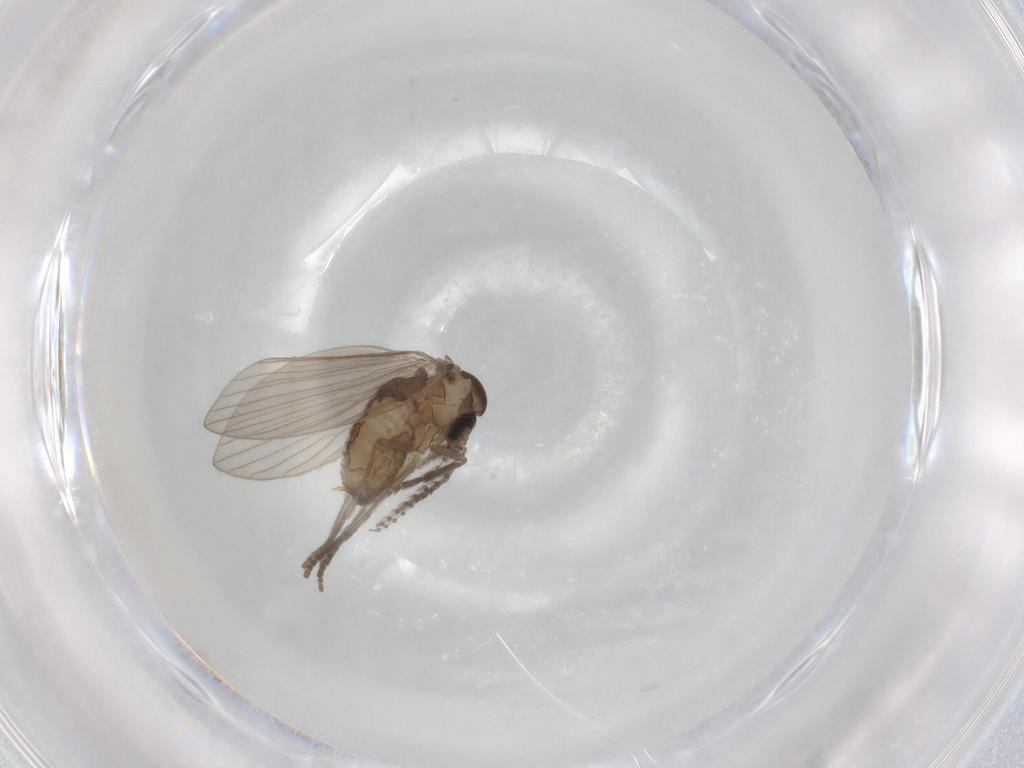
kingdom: Animalia
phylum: Arthropoda
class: Insecta
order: Diptera
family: Psychodidae
